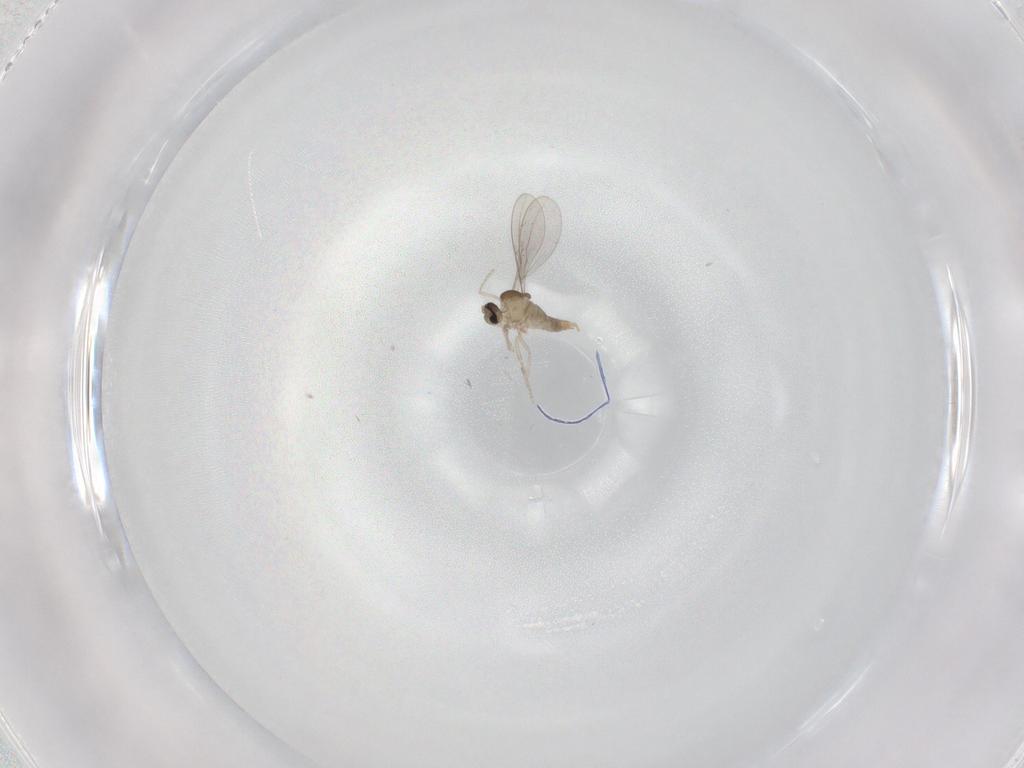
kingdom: Animalia
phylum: Arthropoda
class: Insecta
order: Diptera
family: Cecidomyiidae
